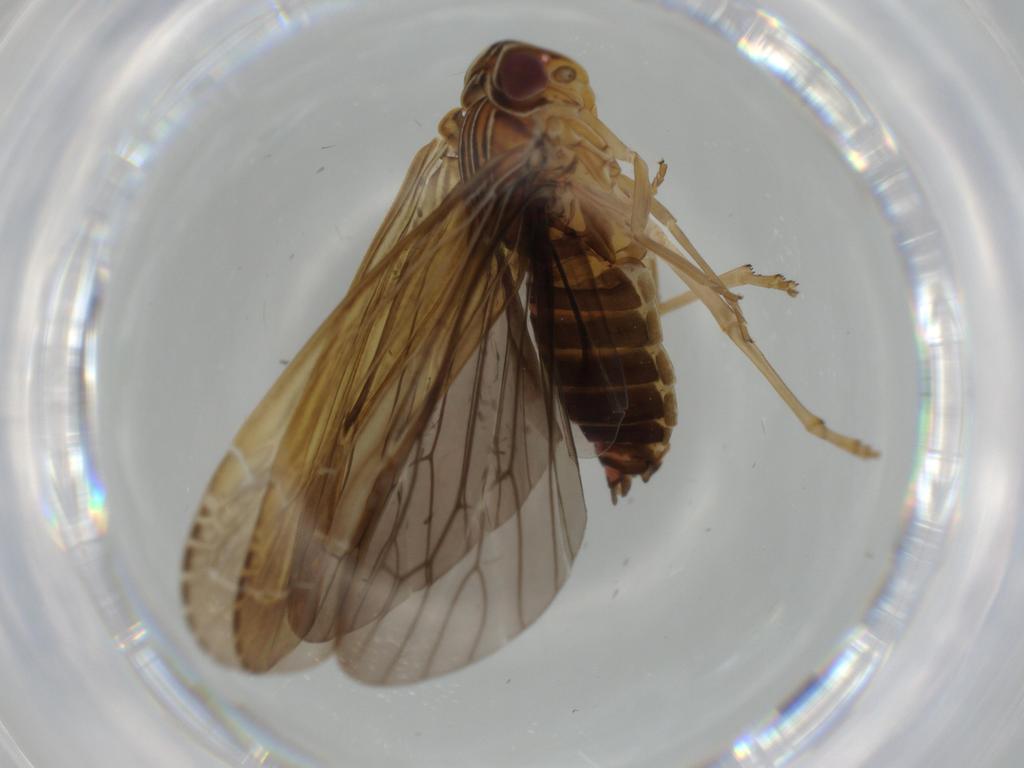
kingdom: Animalia
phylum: Arthropoda
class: Insecta
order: Hemiptera
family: Achilidae
